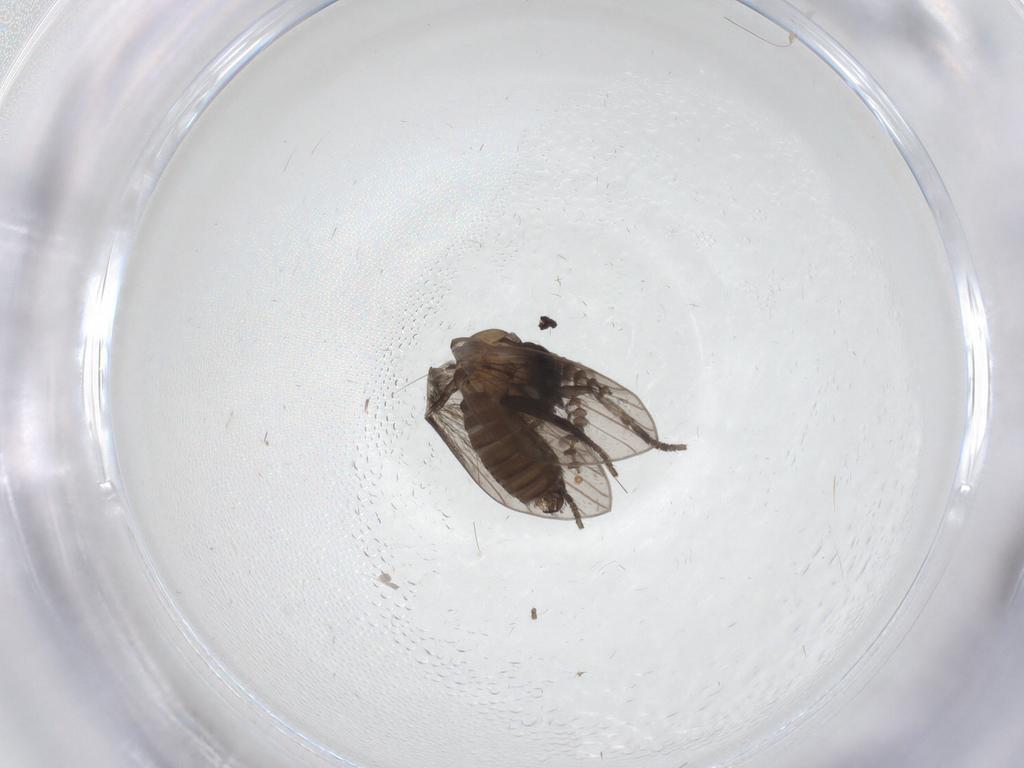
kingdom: Animalia
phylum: Arthropoda
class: Insecta
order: Diptera
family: Psychodidae
